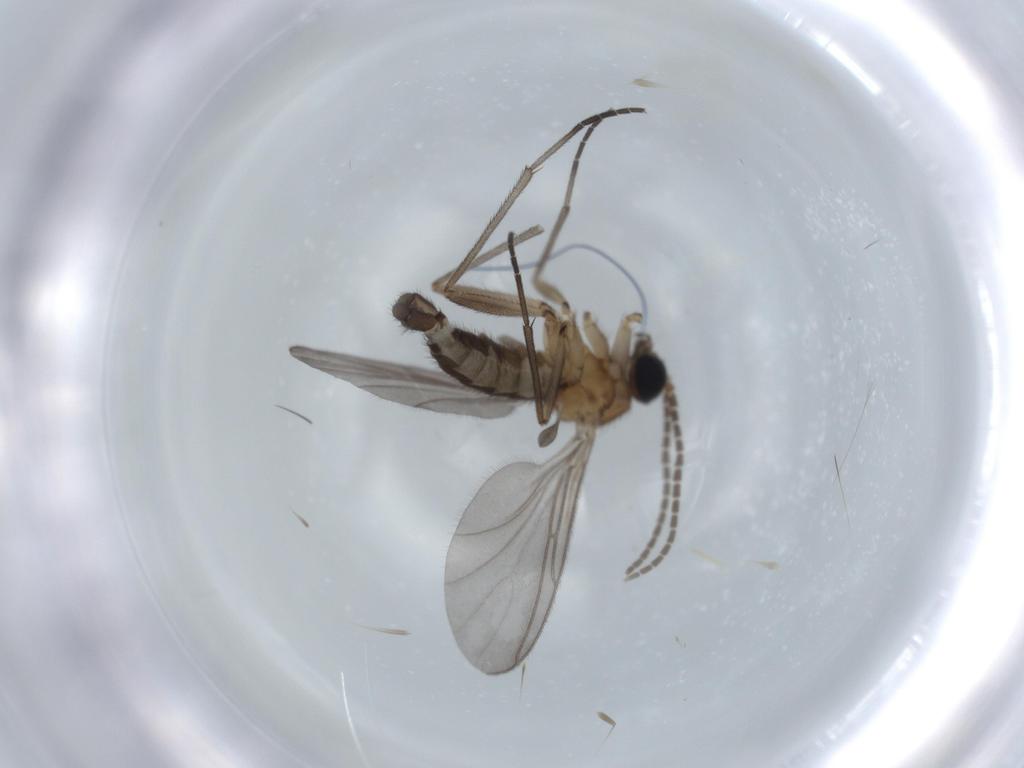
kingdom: Animalia
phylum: Arthropoda
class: Insecta
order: Diptera
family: Sciaridae
